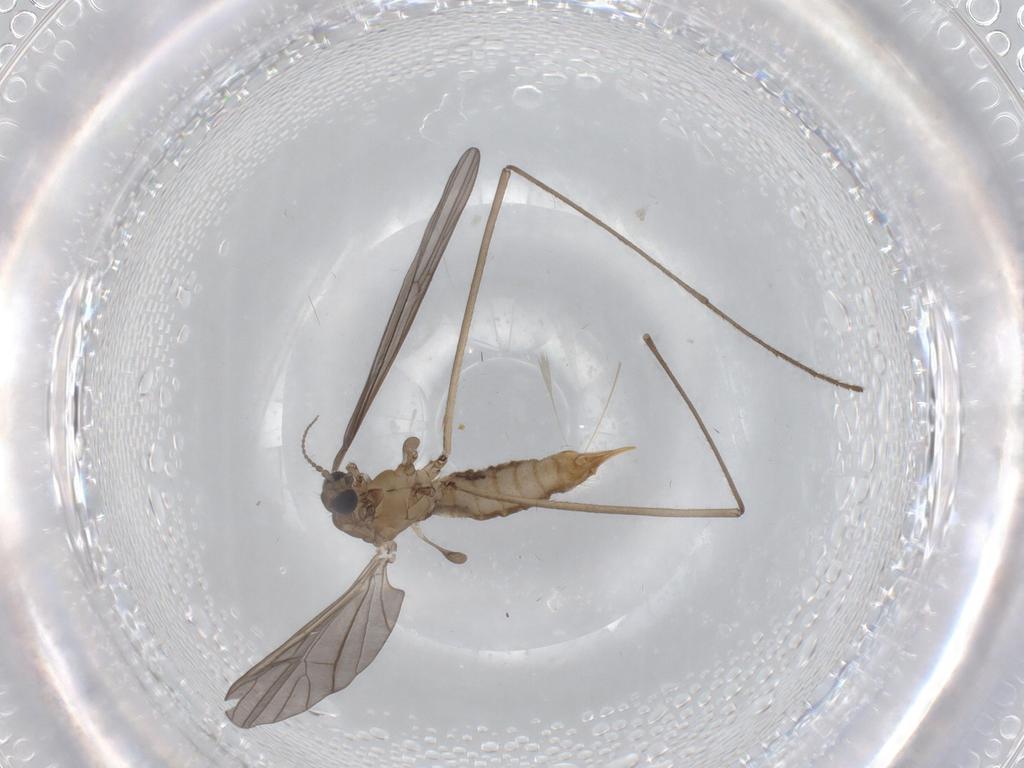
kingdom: Animalia
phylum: Arthropoda
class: Insecta
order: Diptera
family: Limoniidae
